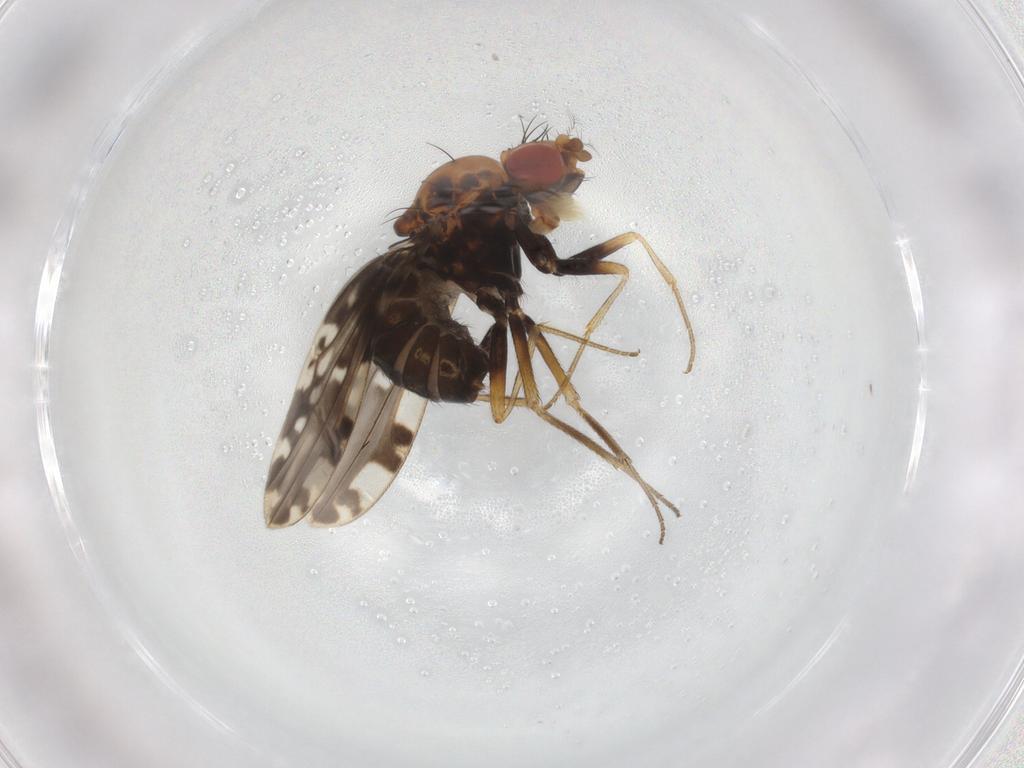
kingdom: Animalia
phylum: Arthropoda
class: Insecta
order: Diptera
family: Drosophilidae
